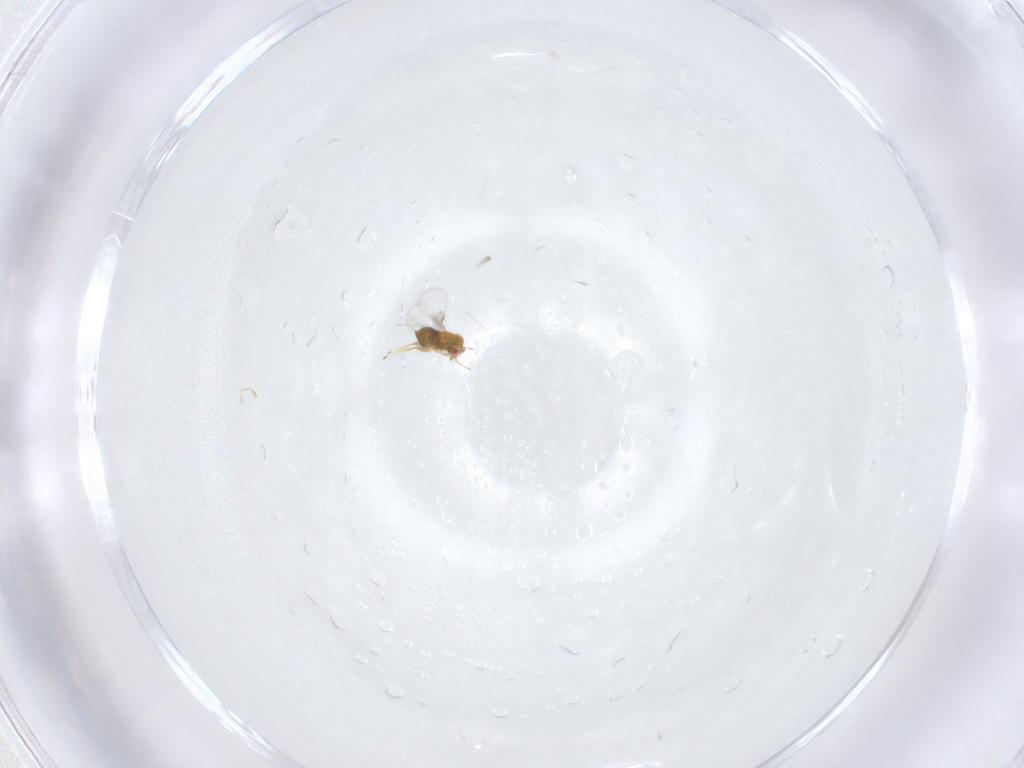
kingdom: Animalia
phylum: Arthropoda
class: Insecta
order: Hymenoptera
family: Trichogrammatidae
